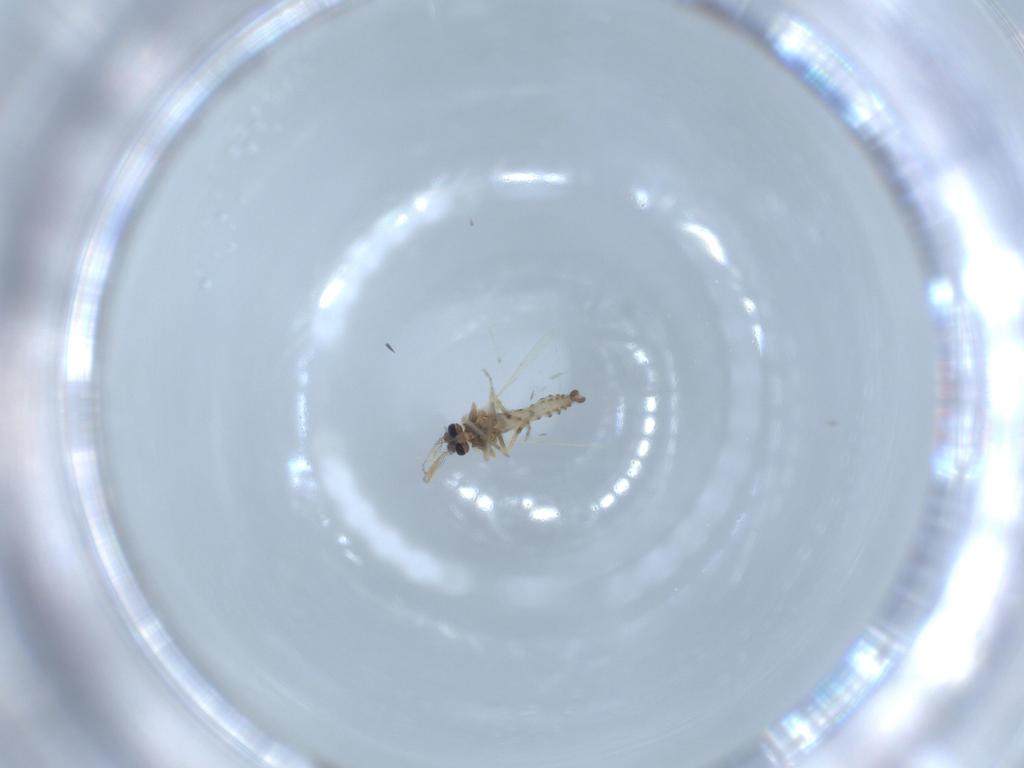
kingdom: Animalia
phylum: Arthropoda
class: Insecta
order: Diptera
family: Ceratopogonidae
